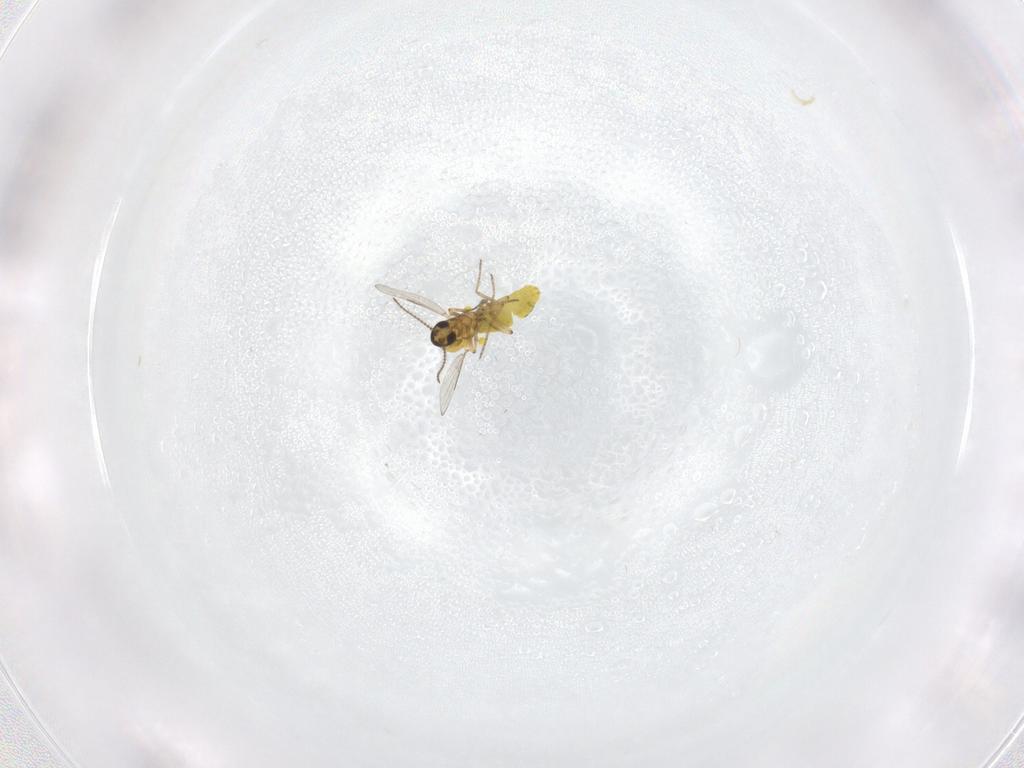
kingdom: Animalia
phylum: Arthropoda
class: Insecta
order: Diptera
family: Ceratopogonidae
